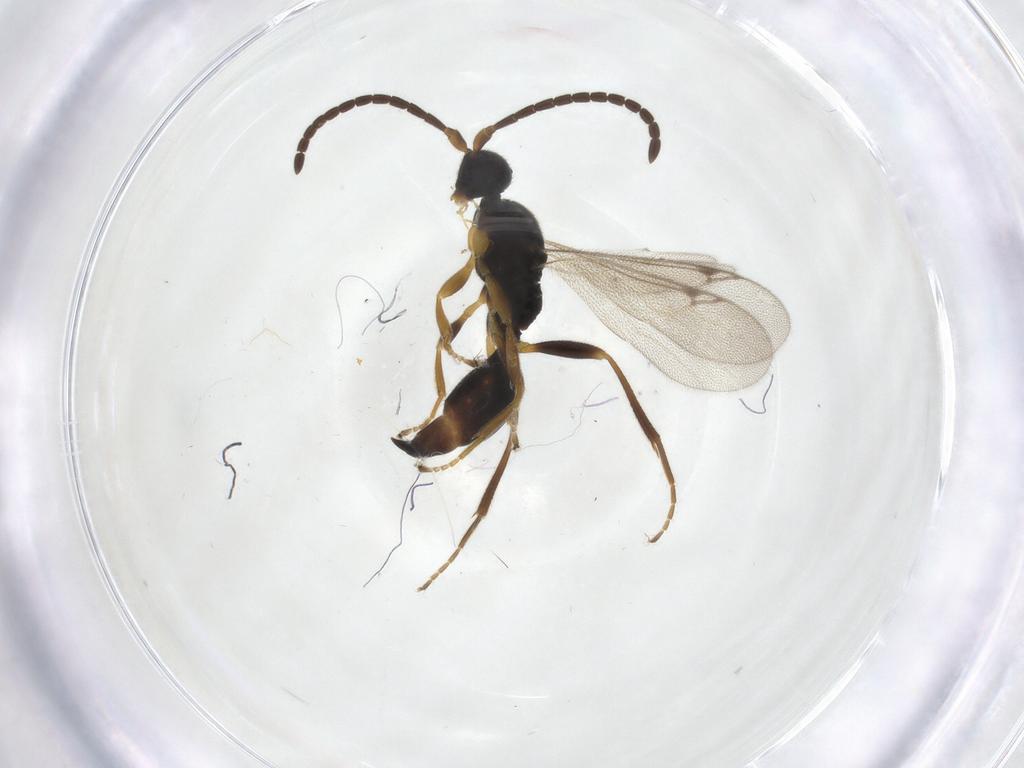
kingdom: Animalia
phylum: Arthropoda
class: Insecta
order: Hymenoptera
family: Proctotrupidae
